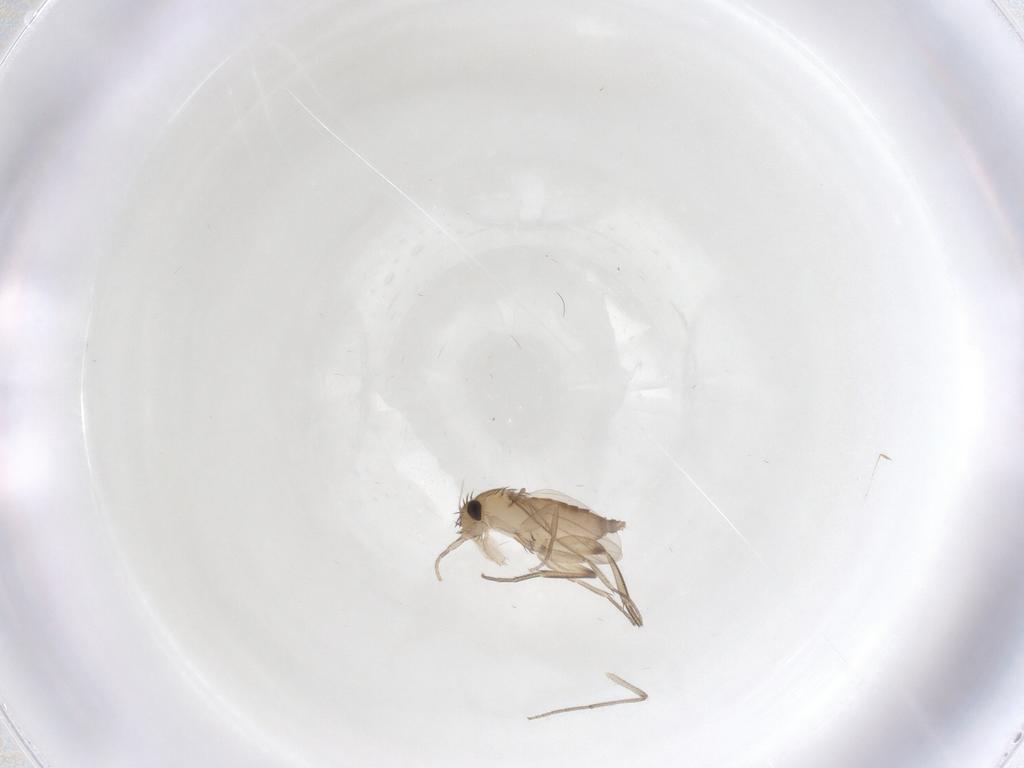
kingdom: Animalia
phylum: Arthropoda
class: Insecta
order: Diptera
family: Phoridae
